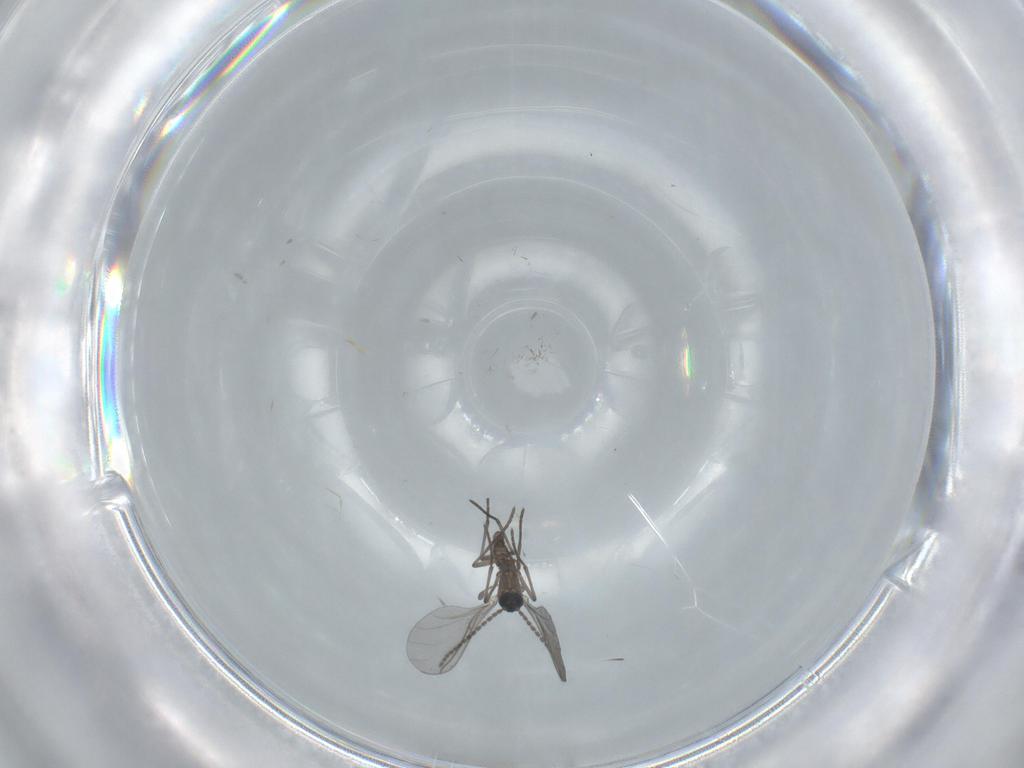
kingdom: Animalia
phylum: Arthropoda
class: Insecta
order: Diptera
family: Sciaridae
